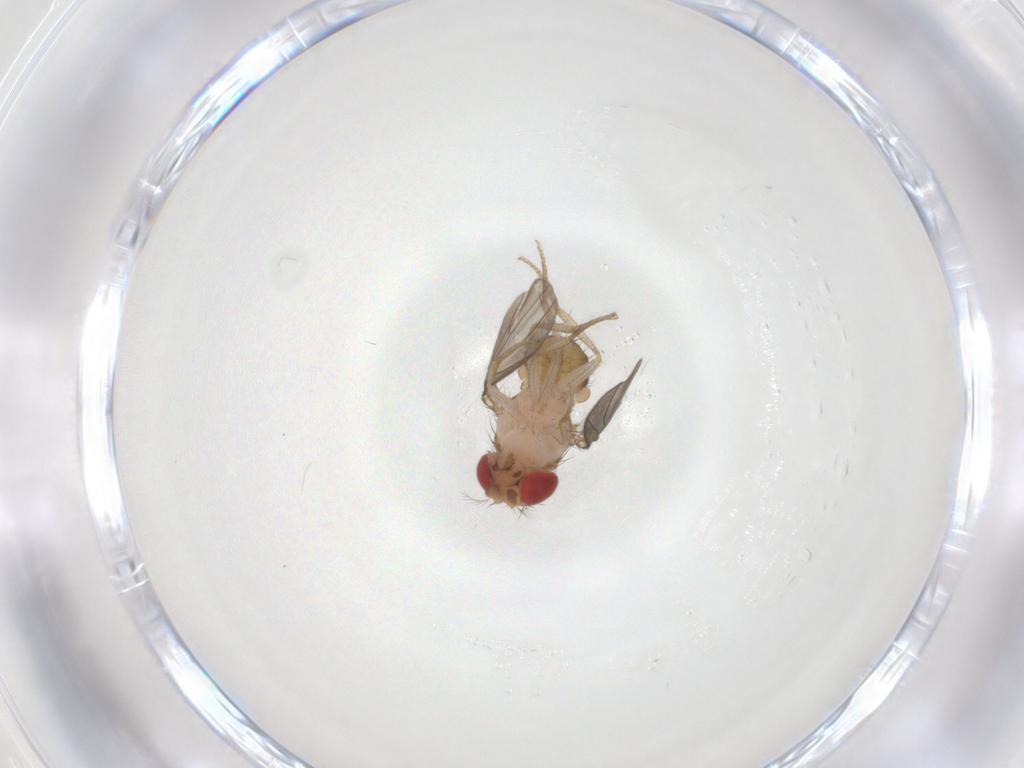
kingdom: Animalia
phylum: Arthropoda
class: Insecta
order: Diptera
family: Drosophilidae
